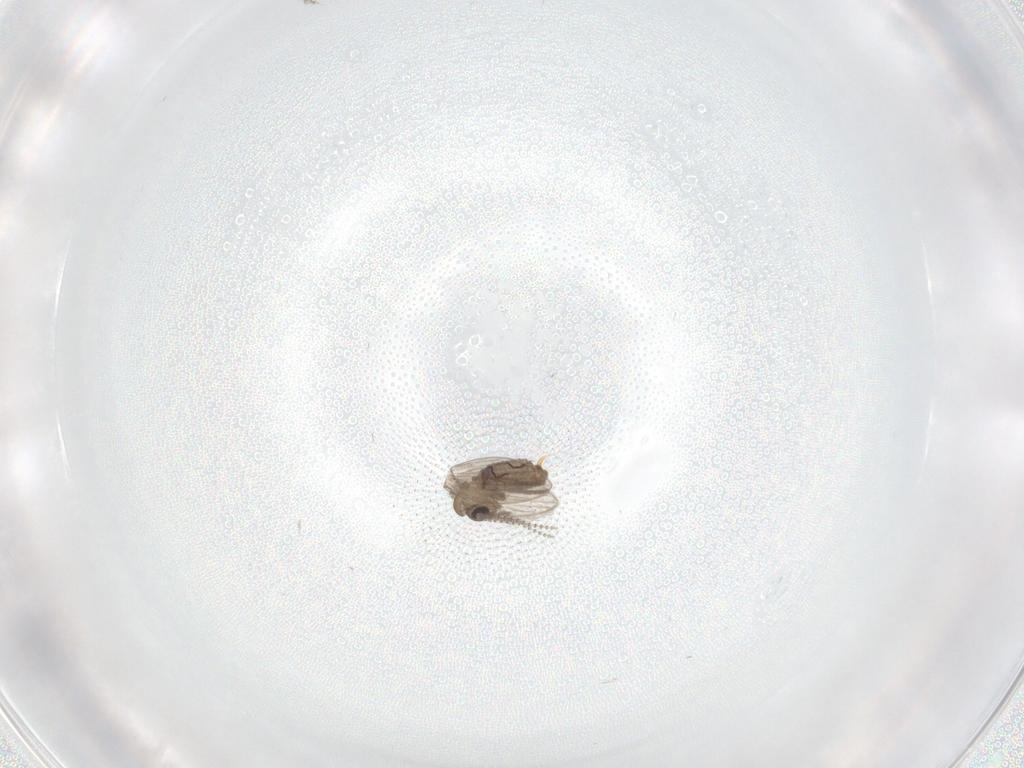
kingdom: Animalia
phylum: Arthropoda
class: Insecta
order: Diptera
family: Psychodidae
